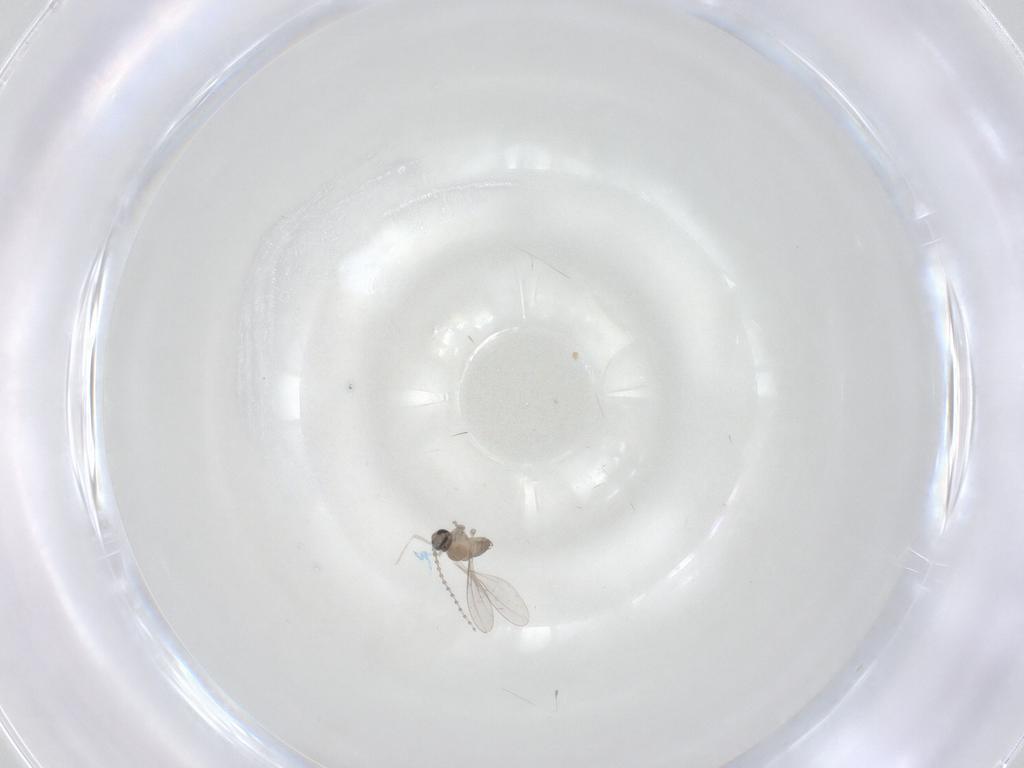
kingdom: Animalia
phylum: Arthropoda
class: Insecta
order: Diptera
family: Cecidomyiidae
